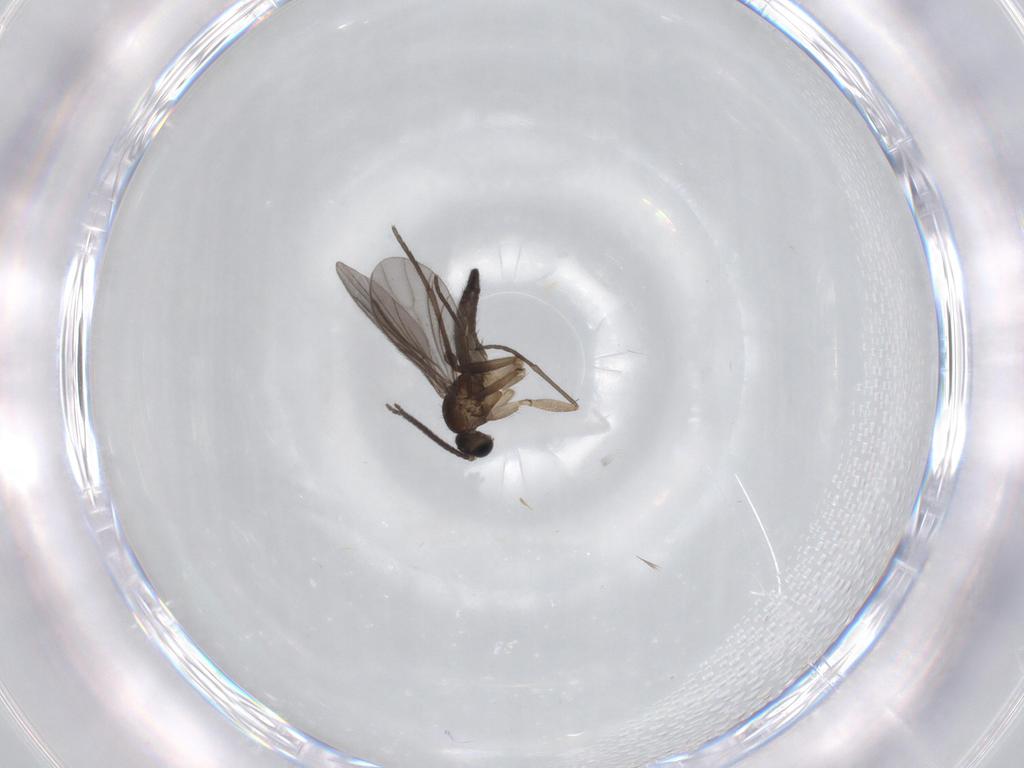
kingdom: Animalia
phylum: Arthropoda
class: Insecta
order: Diptera
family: Sciaridae
